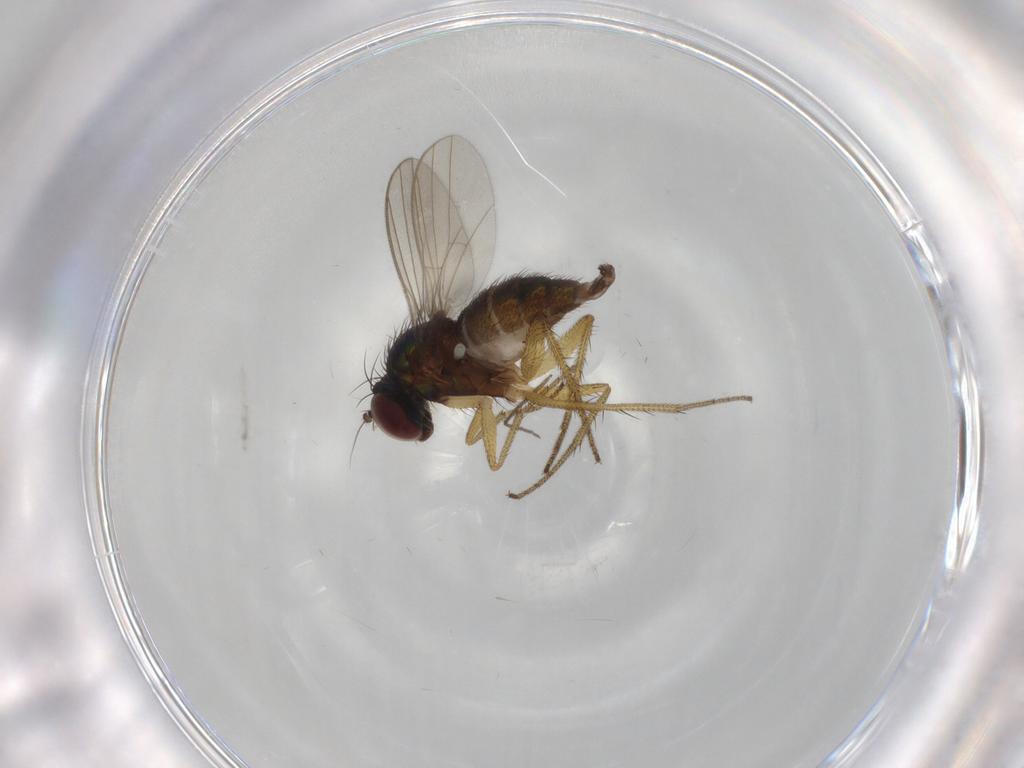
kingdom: Animalia
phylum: Arthropoda
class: Insecta
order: Diptera
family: Chironomidae
